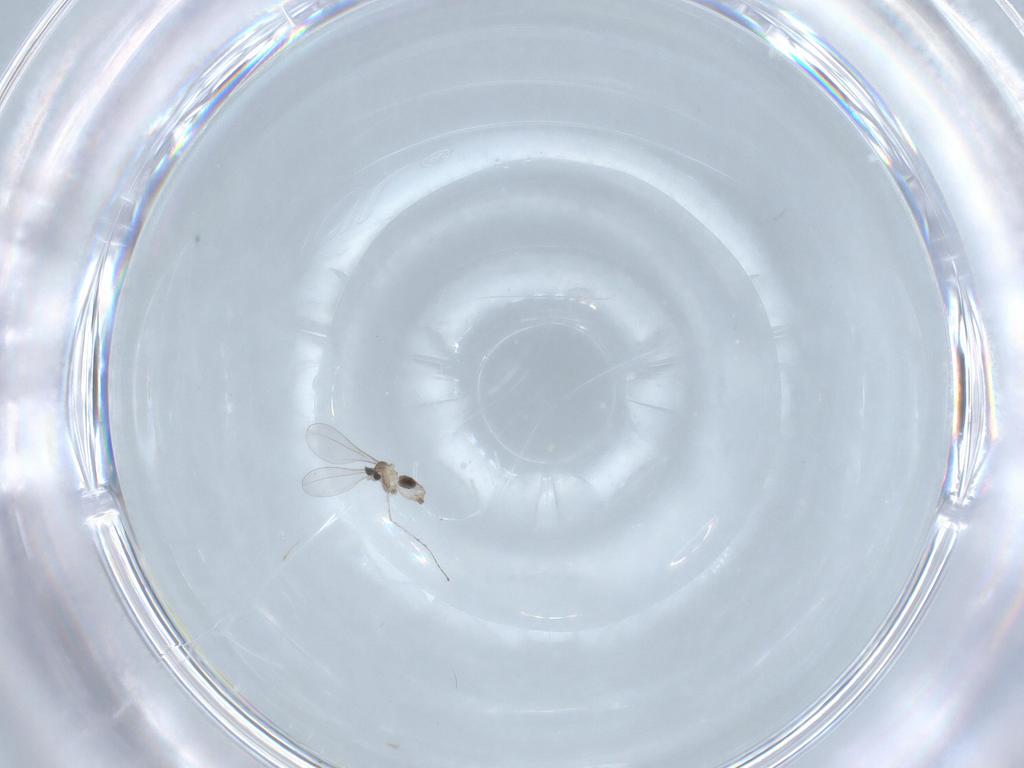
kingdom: Animalia
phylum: Arthropoda
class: Insecta
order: Diptera
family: Cecidomyiidae
